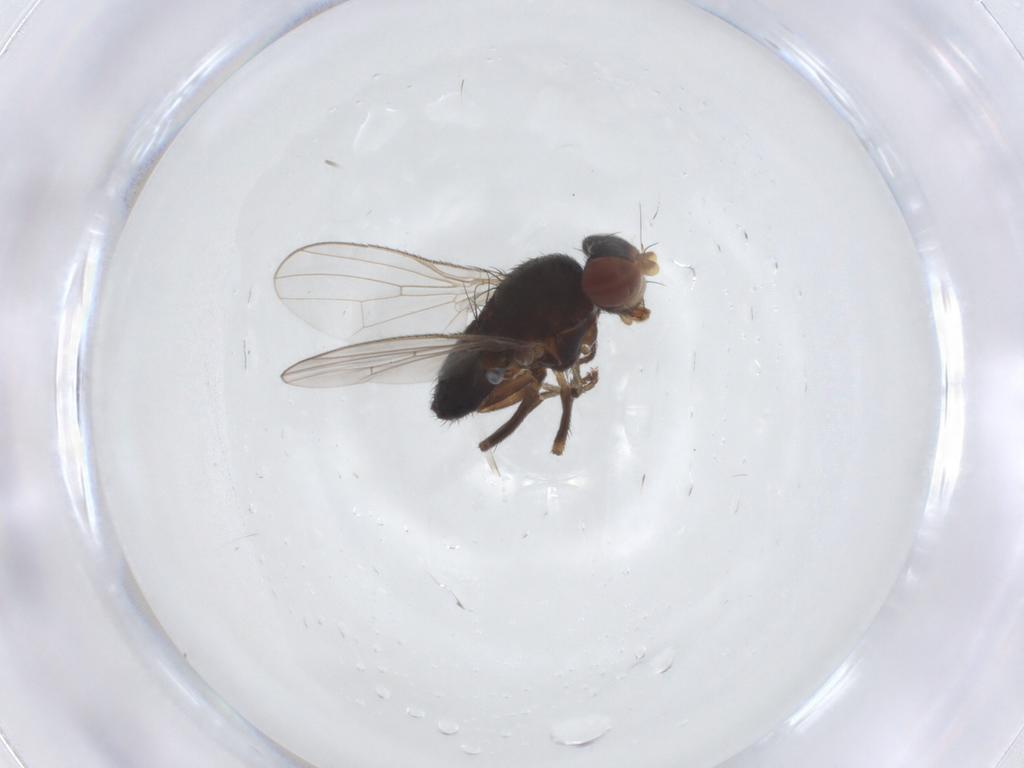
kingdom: Animalia
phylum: Arthropoda
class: Insecta
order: Diptera
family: Heleomyzidae
